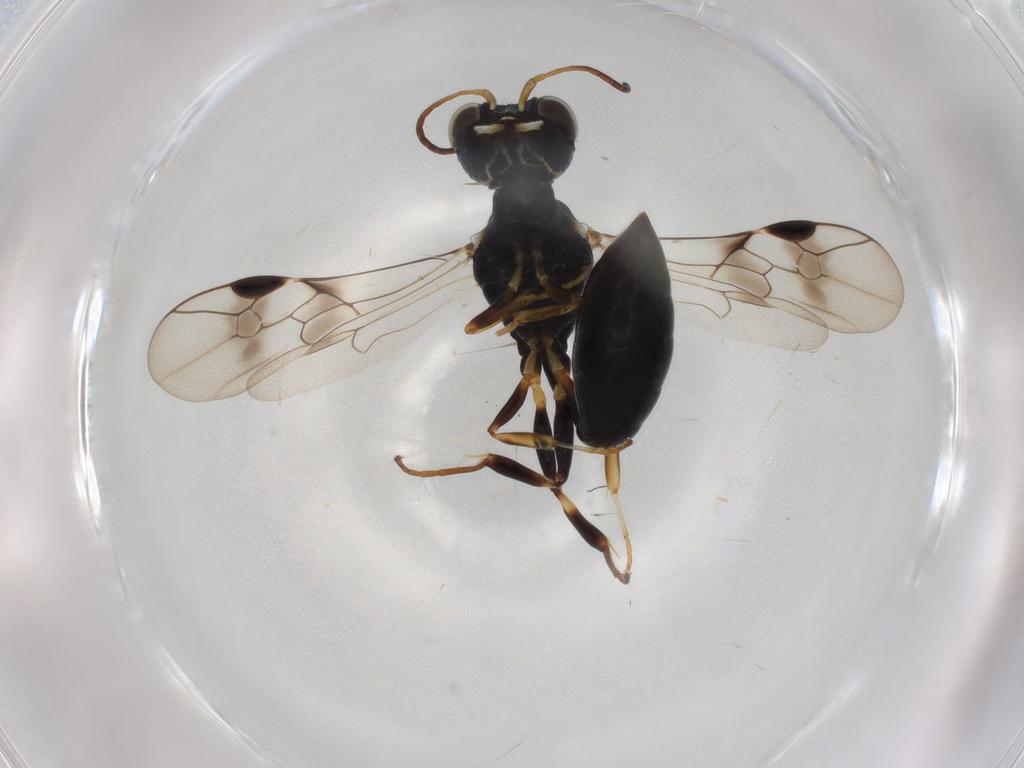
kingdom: Animalia
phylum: Arthropoda
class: Insecta
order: Hymenoptera
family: Pemphredonidae
